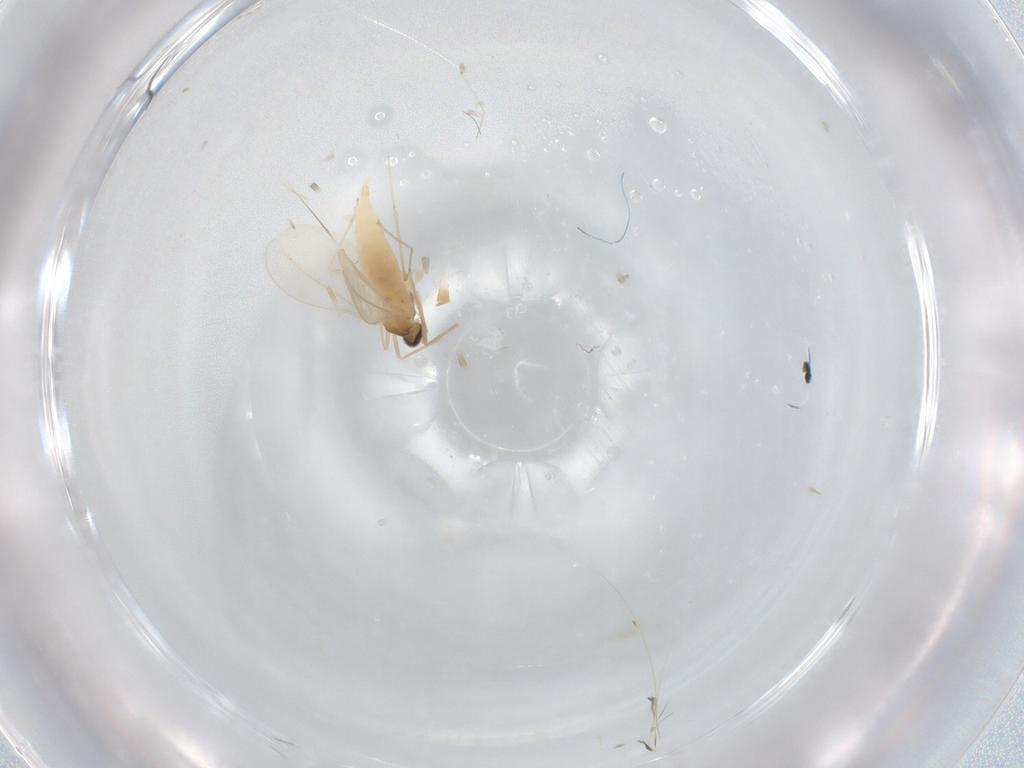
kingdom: Animalia
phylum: Arthropoda
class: Insecta
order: Diptera
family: Cecidomyiidae
